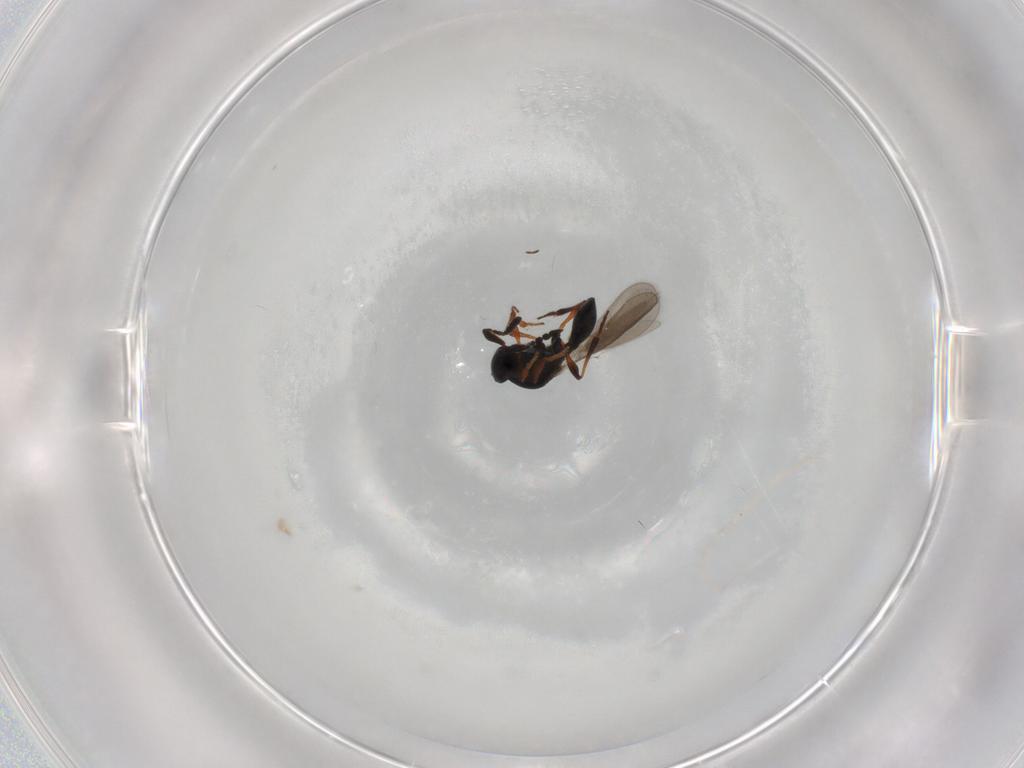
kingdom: Animalia
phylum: Arthropoda
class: Insecta
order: Hymenoptera
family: Platygastridae
